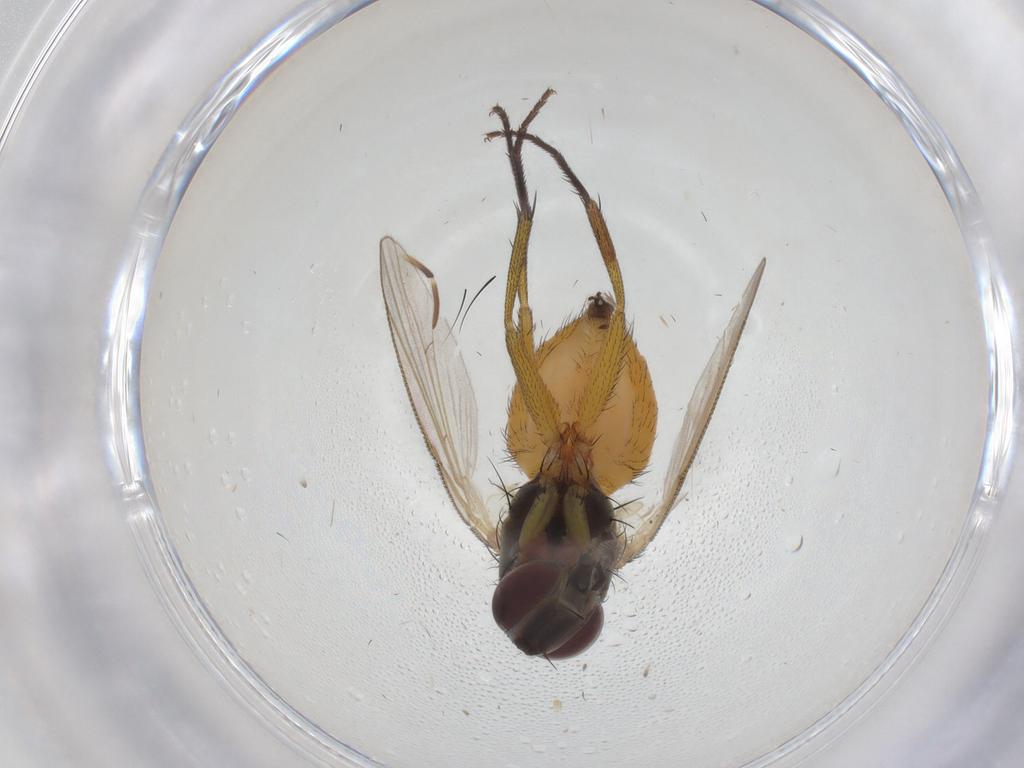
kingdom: Animalia
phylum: Arthropoda
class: Insecta
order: Diptera
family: Muscidae
